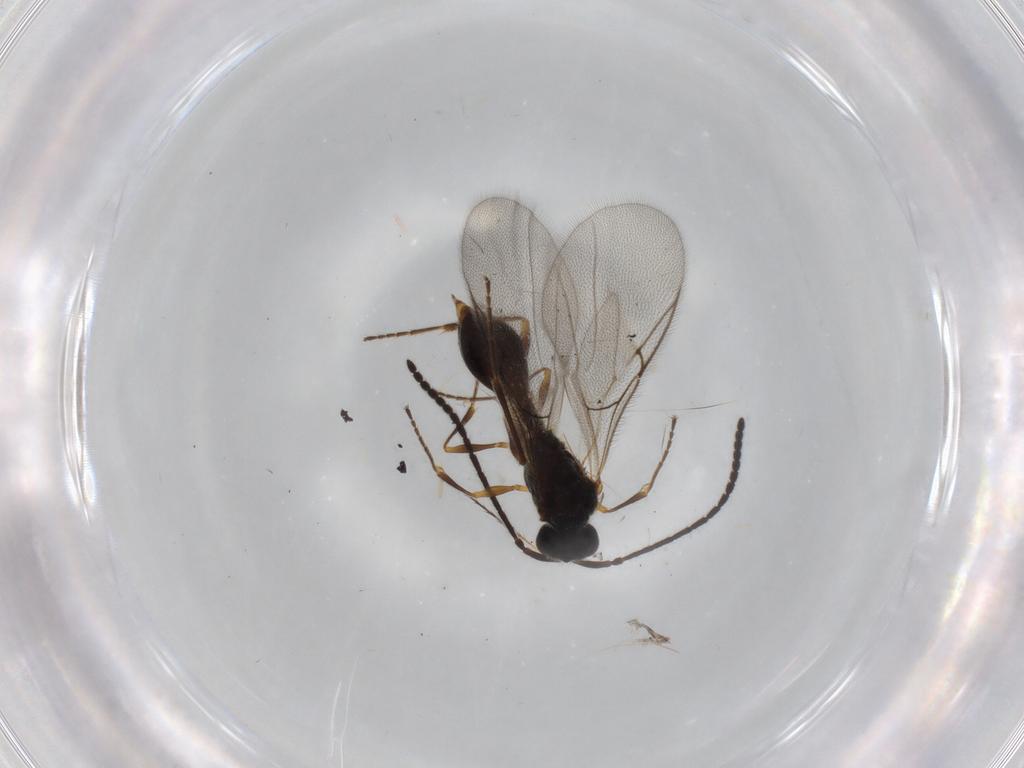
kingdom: Animalia
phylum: Arthropoda
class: Insecta
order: Hymenoptera
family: Diapriidae
